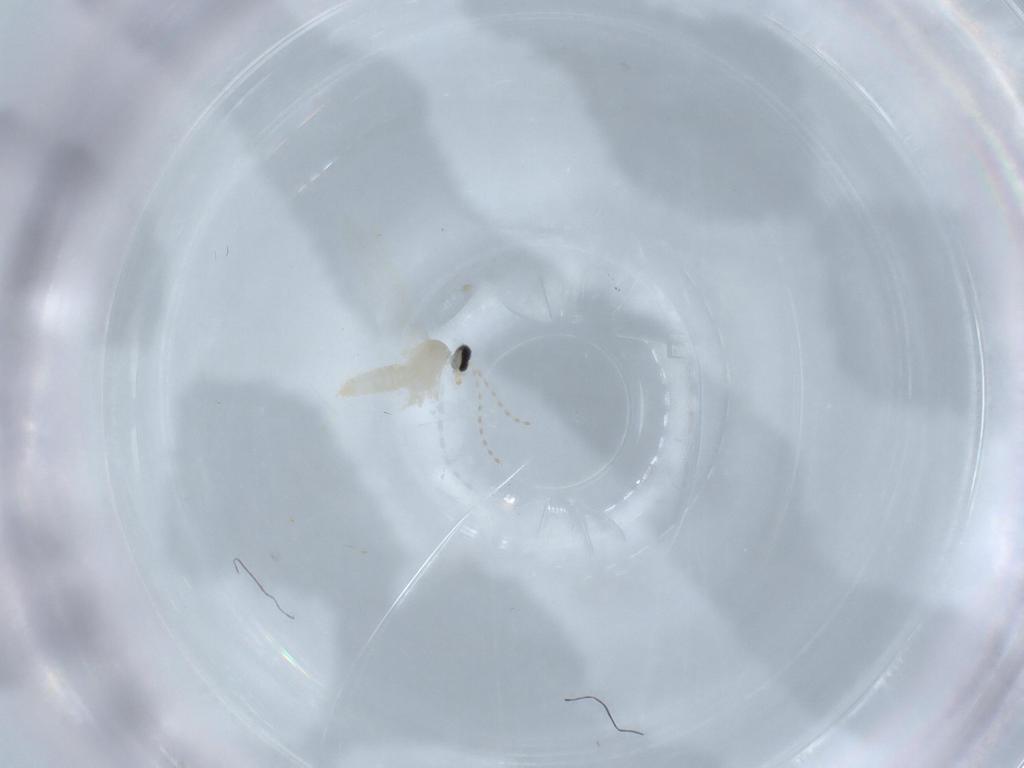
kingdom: Animalia
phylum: Arthropoda
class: Insecta
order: Diptera
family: Cecidomyiidae
